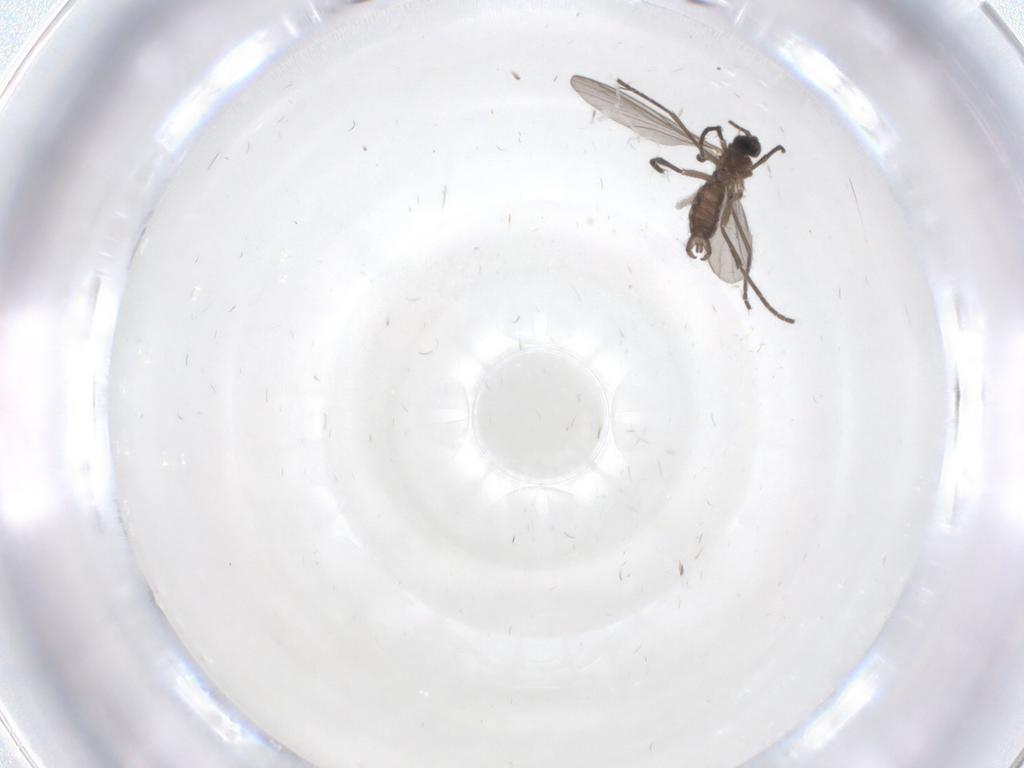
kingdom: Animalia
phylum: Arthropoda
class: Insecta
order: Diptera
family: Sciaridae
